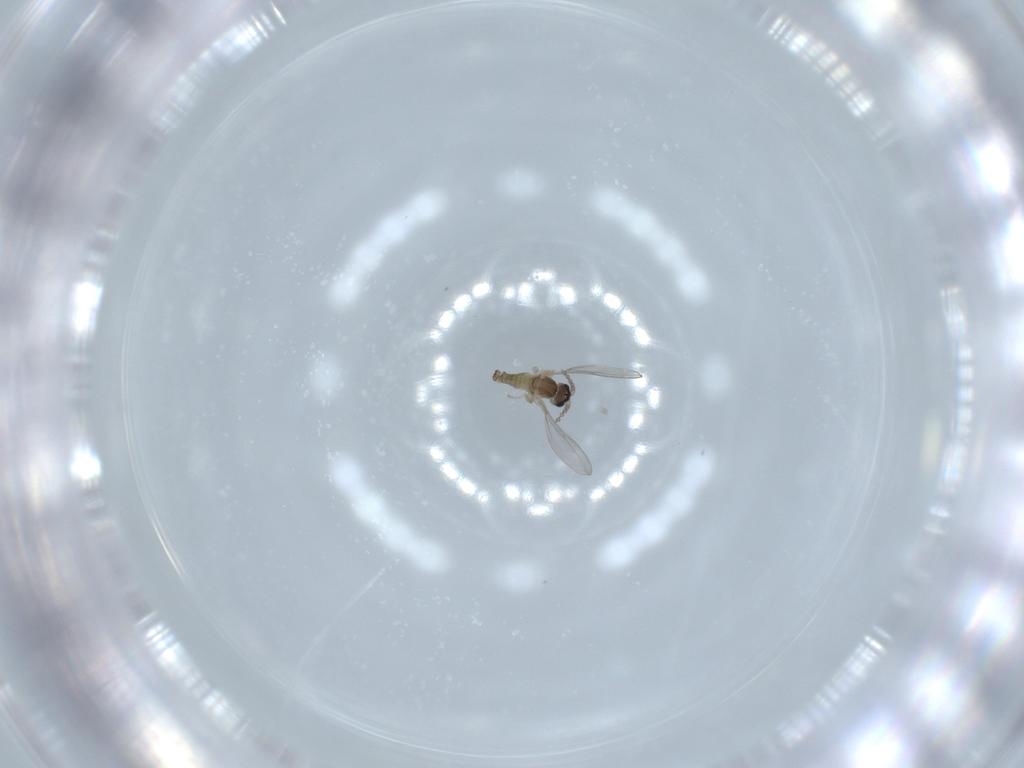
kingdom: Animalia
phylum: Arthropoda
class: Insecta
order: Diptera
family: Cecidomyiidae
